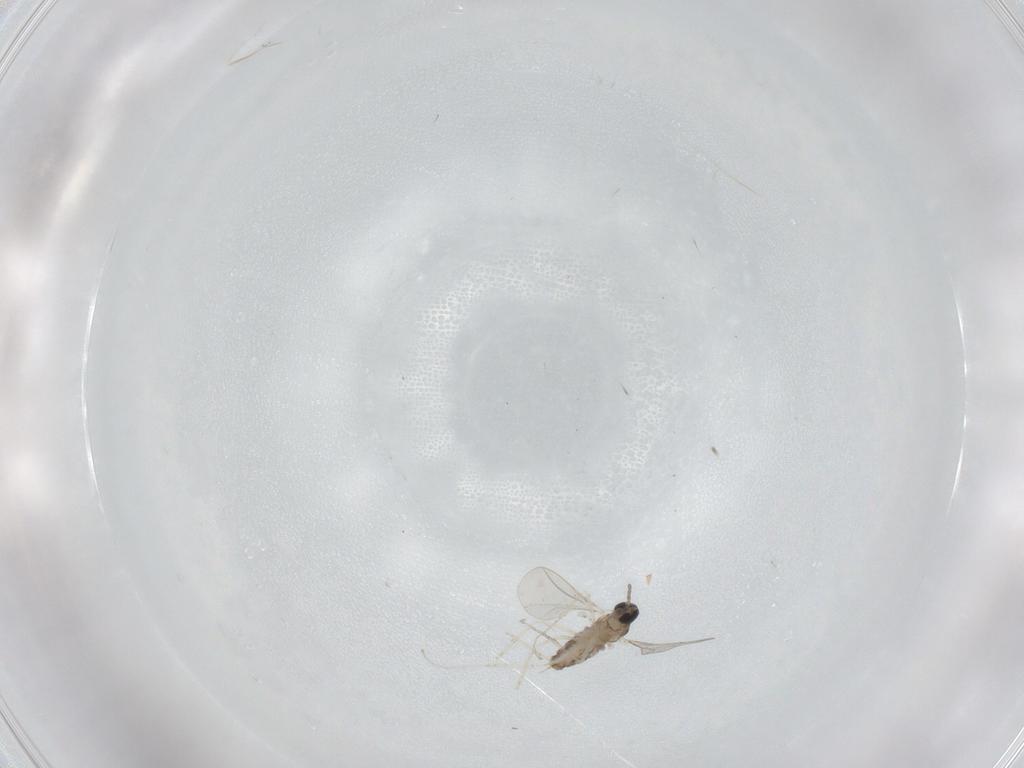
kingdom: Animalia
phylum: Arthropoda
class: Insecta
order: Diptera
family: Cecidomyiidae
